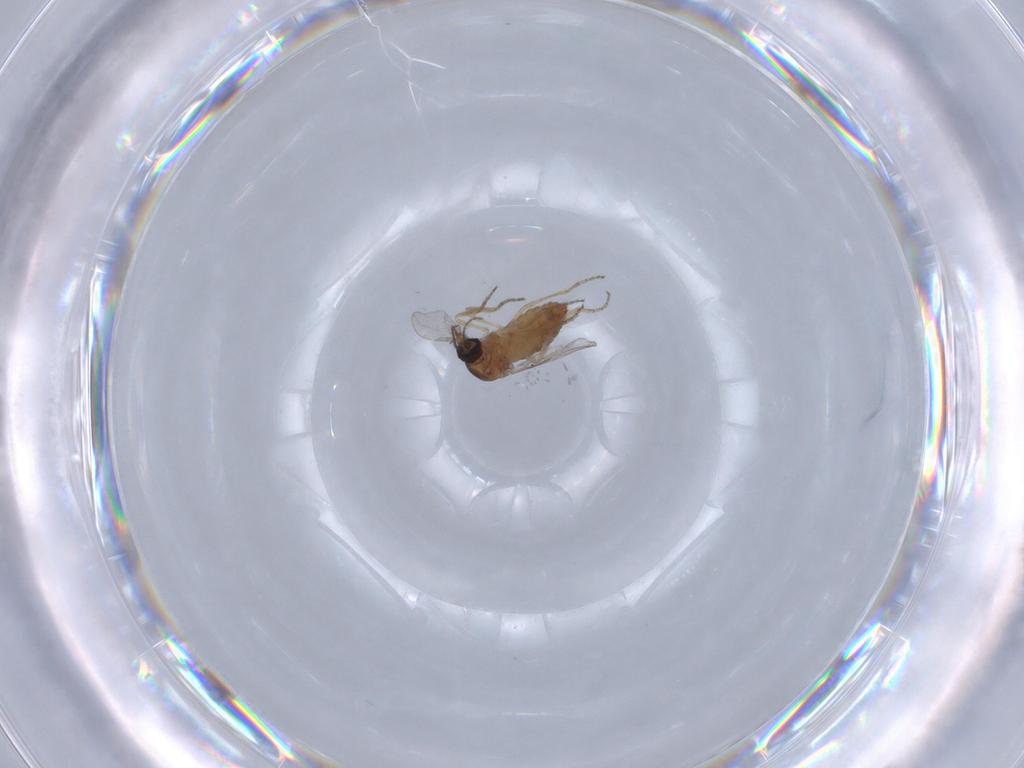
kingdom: Animalia
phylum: Arthropoda
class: Insecta
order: Diptera
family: Ceratopogonidae
